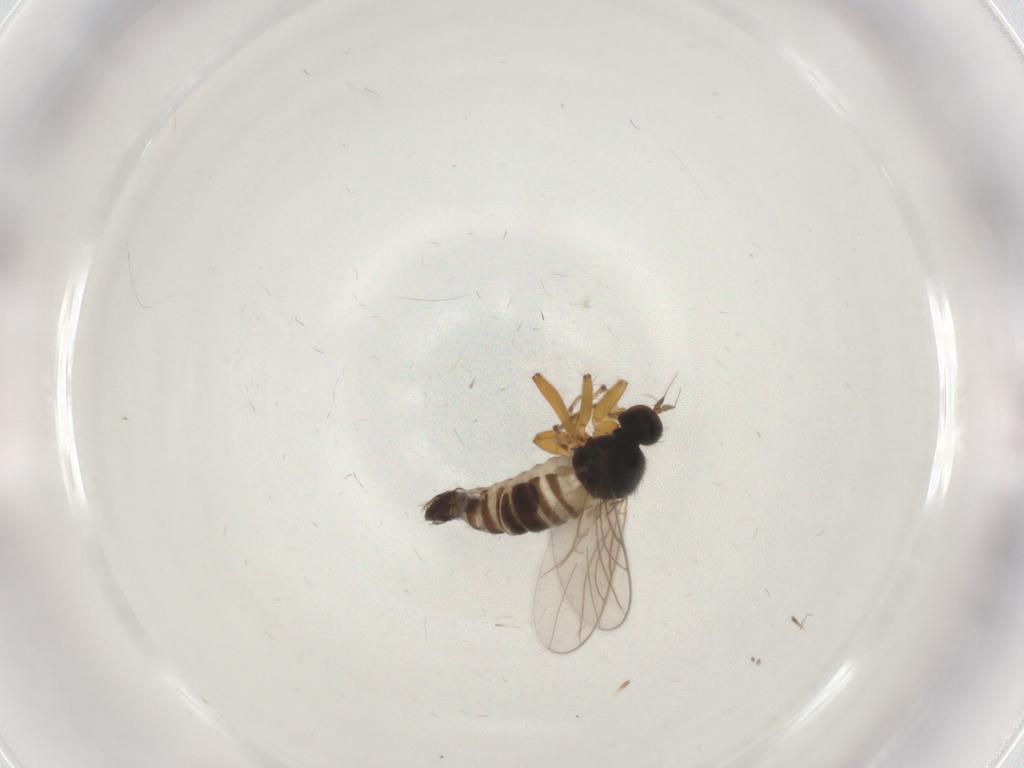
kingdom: Animalia
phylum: Arthropoda
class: Insecta
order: Diptera
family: Hybotidae
